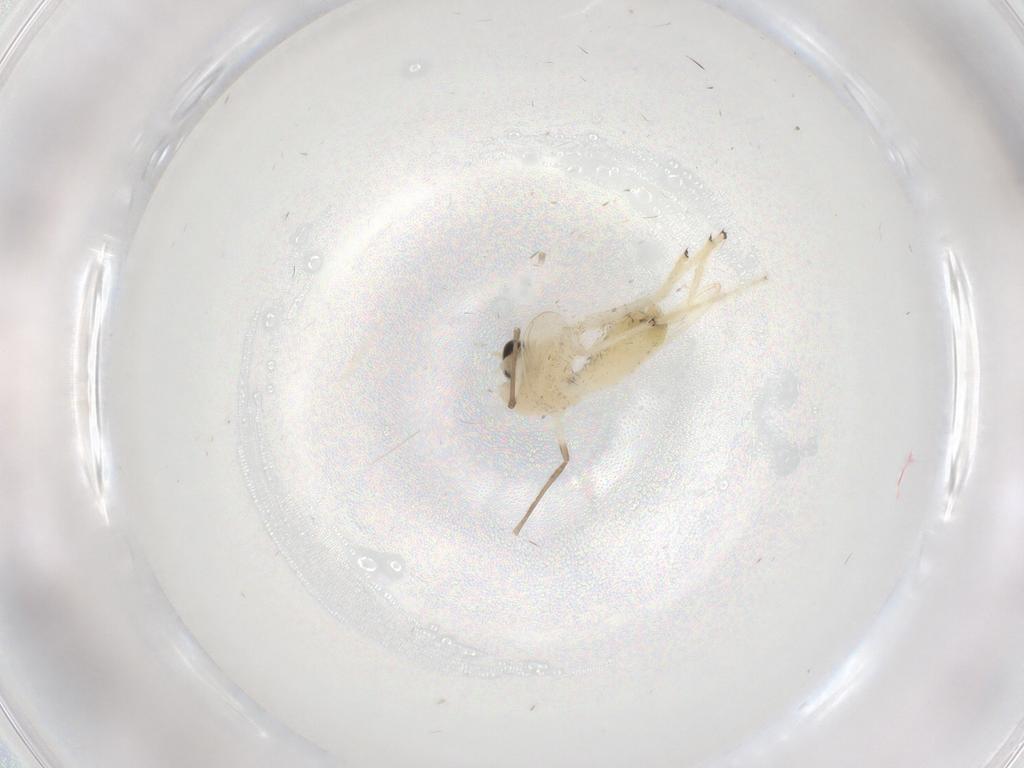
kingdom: Animalia
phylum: Arthropoda
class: Insecta
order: Diptera
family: Chironomidae
